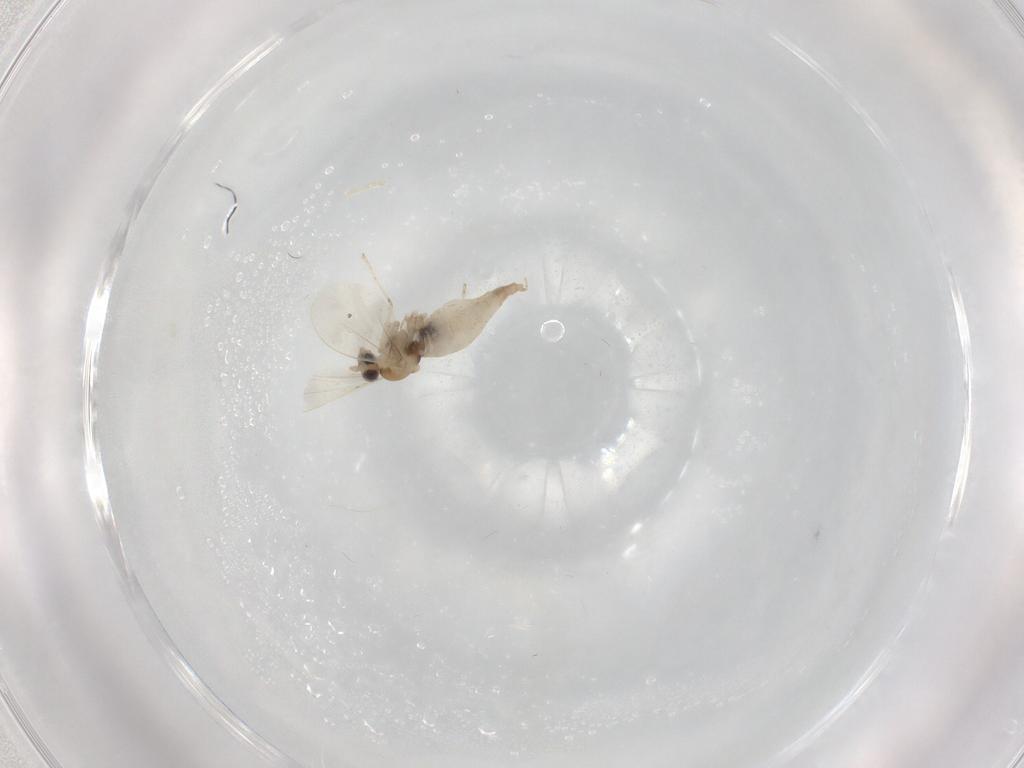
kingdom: Animalia
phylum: Arthropoda
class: Insecta
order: Diptera
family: Cecidomyiidae
